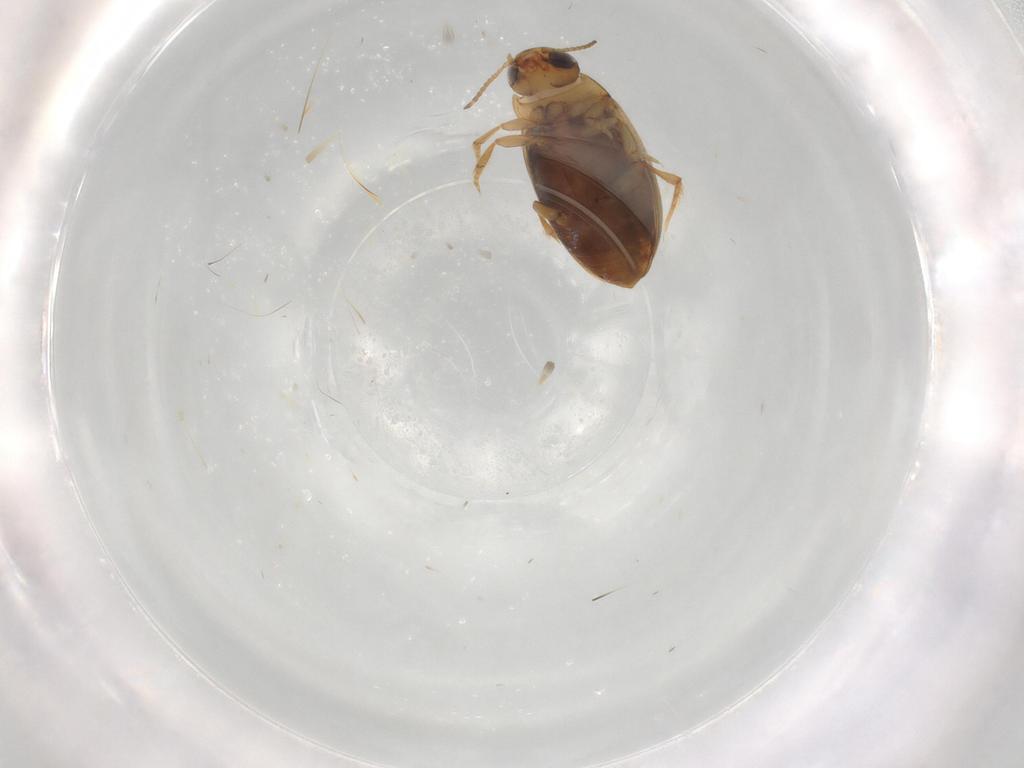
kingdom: Animalia
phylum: Arthropoda
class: Insecta
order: Coleoptera
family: Dytiscidae
